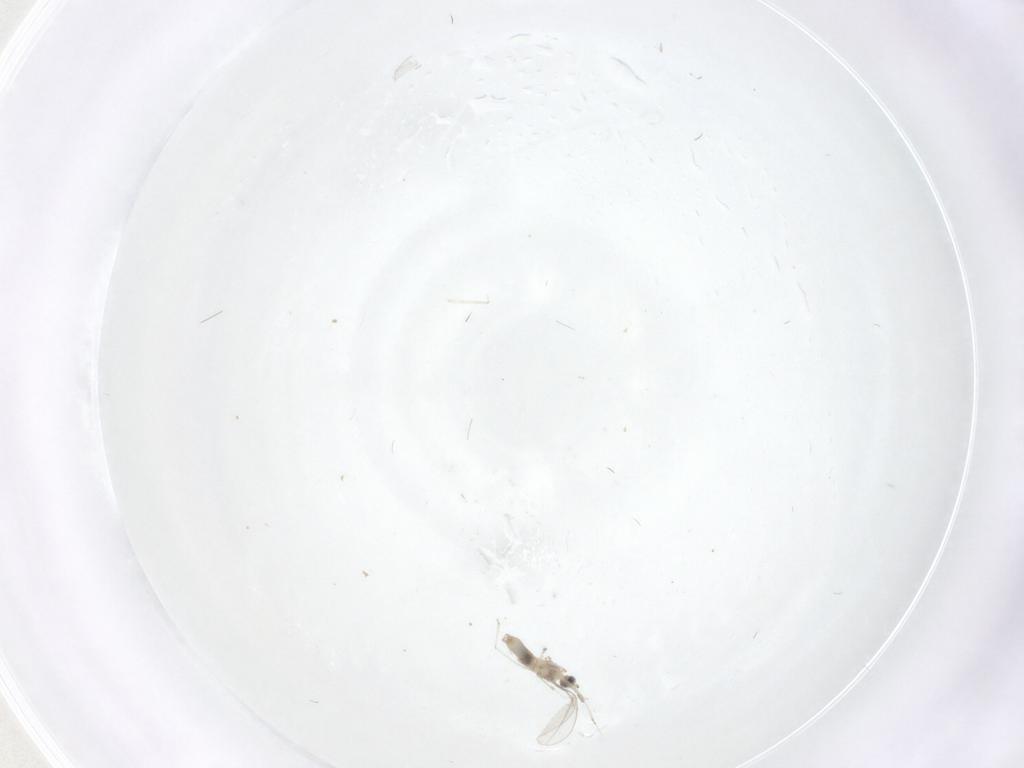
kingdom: Animalia
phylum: Arthropoda
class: Insecta
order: Diptera
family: Cecidomyiidae
